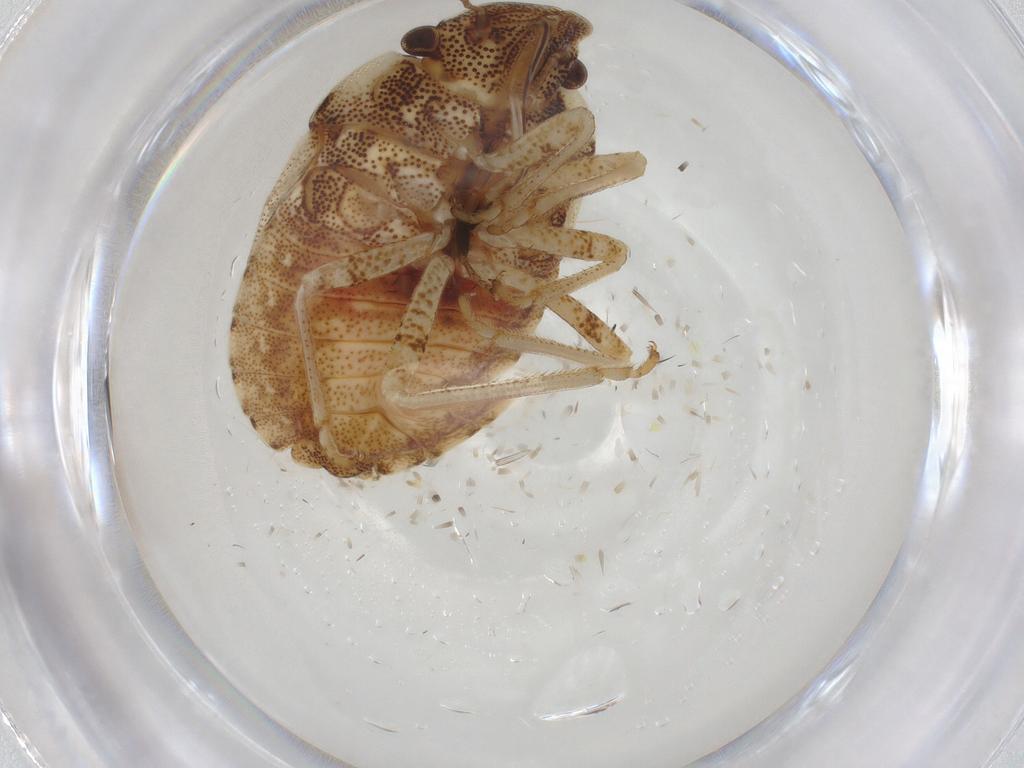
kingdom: Animalia
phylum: Arthropoda
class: Insecta
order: Hemiptera
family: Pentatomidae
